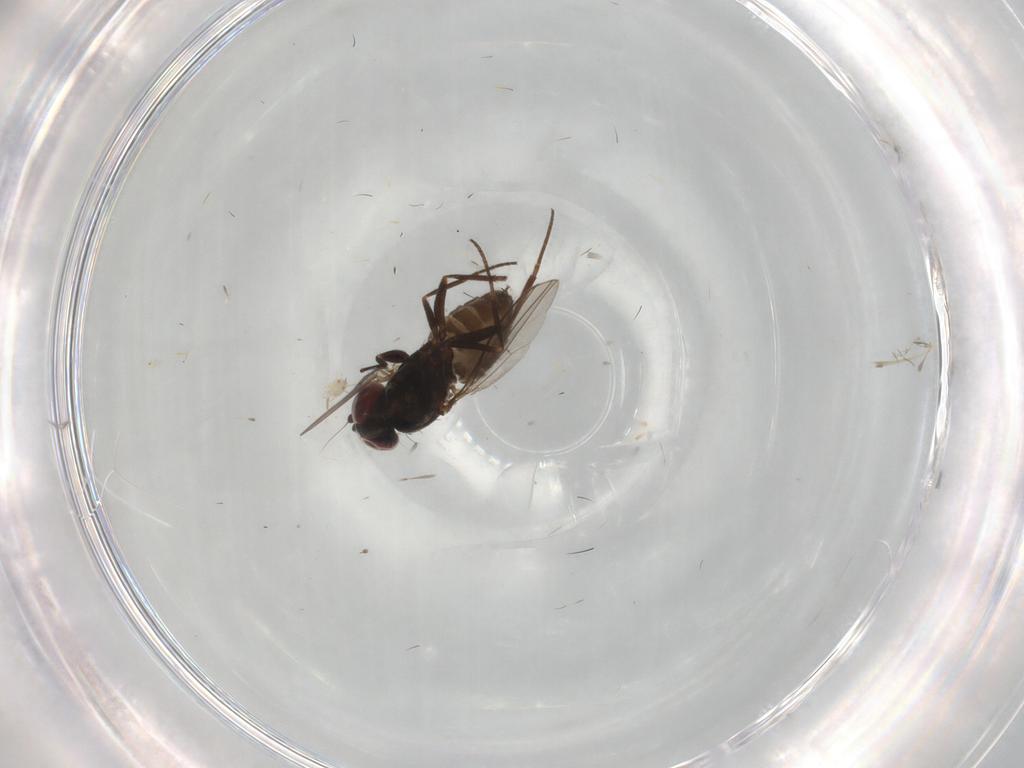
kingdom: Animalia
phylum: Arthropoda
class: Insecta
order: Diptera
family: Dolichopodidae
